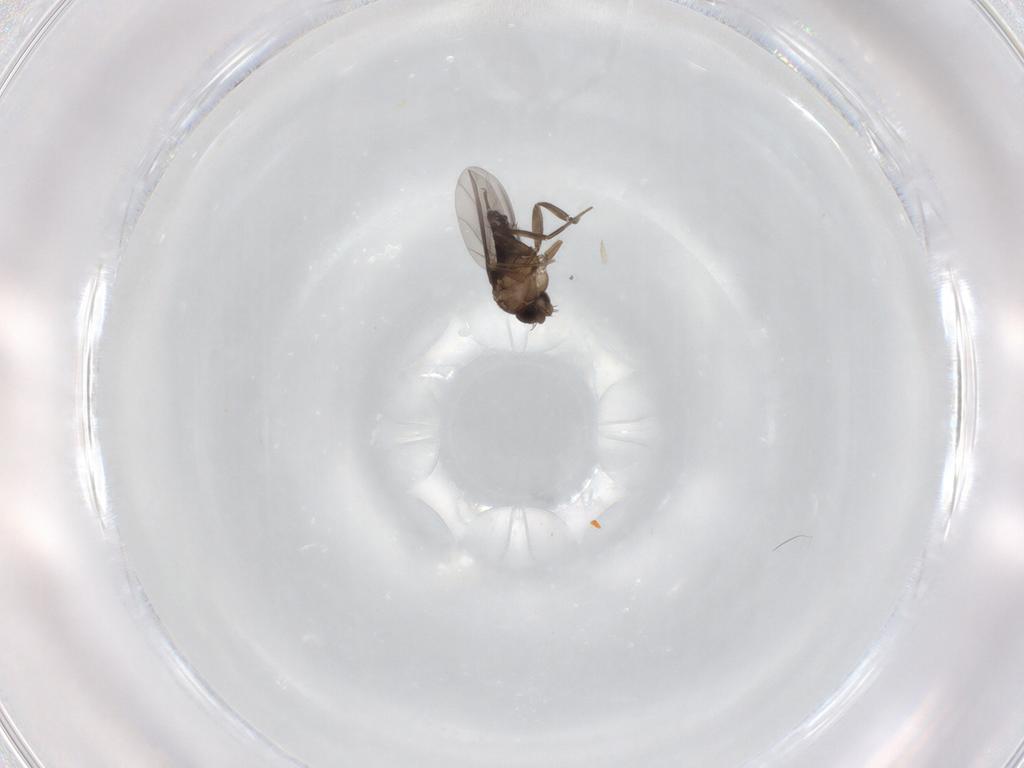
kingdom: Animalia
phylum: Arthropoda
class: Insecta
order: Diptera
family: Phoridae
